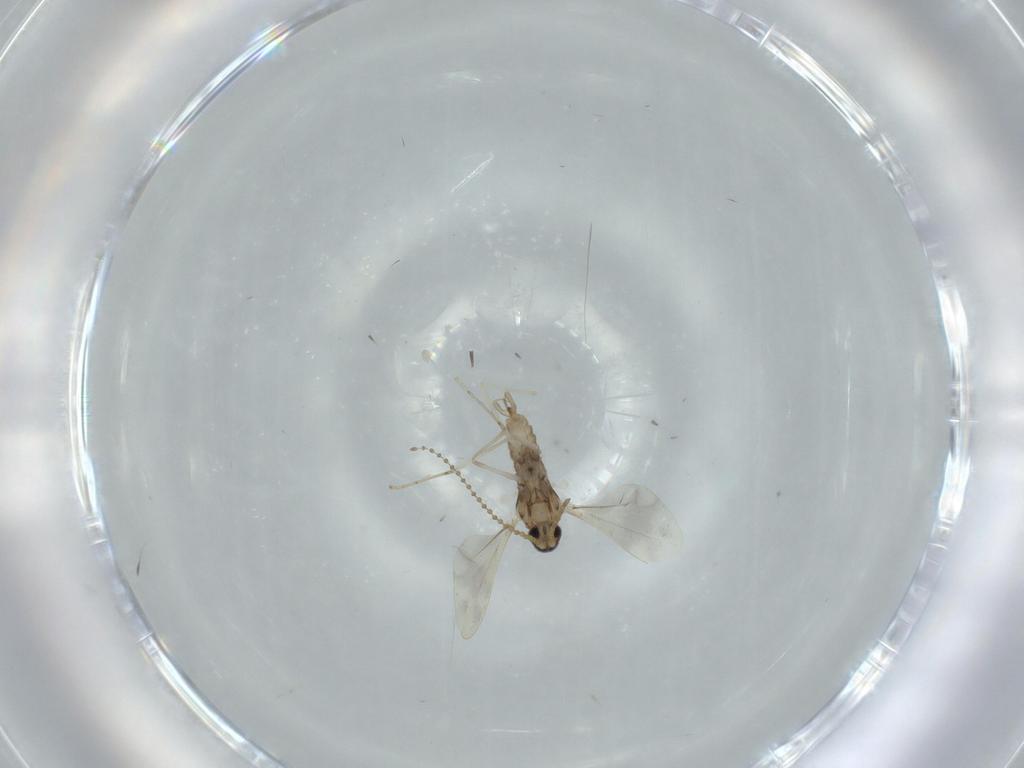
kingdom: Animalia
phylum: Arthropoda
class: Insecta
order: Diptera
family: Cecidomyiidae
